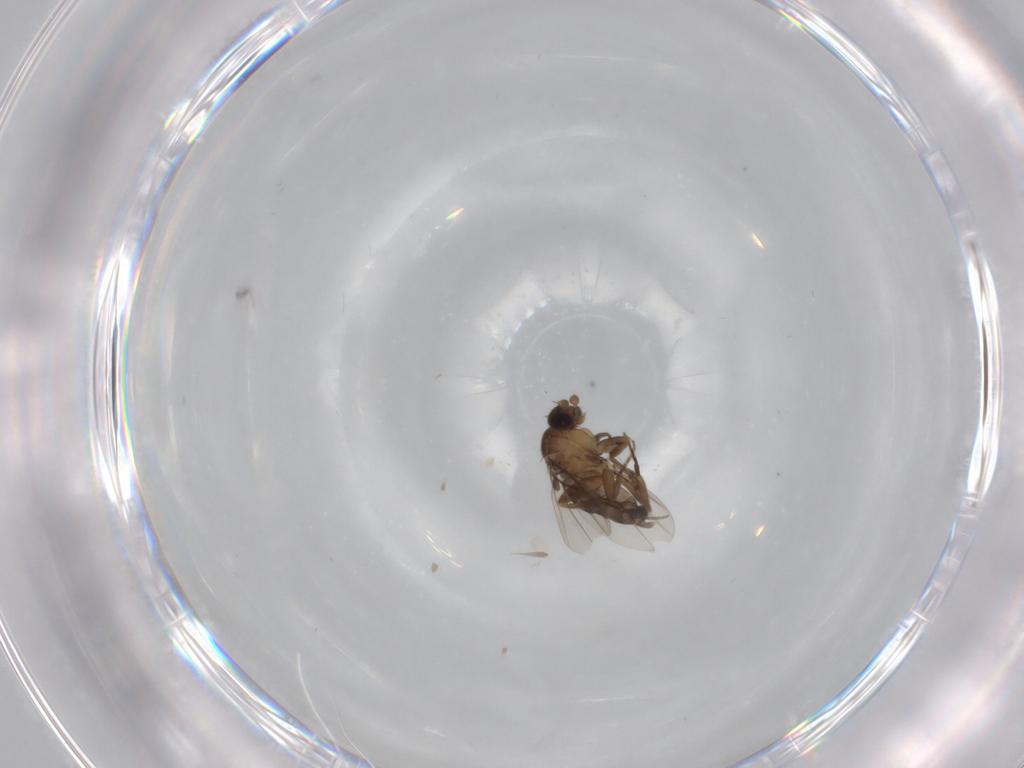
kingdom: Animalia
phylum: Arthropoda
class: Insecta
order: Diptera
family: Phoridae
